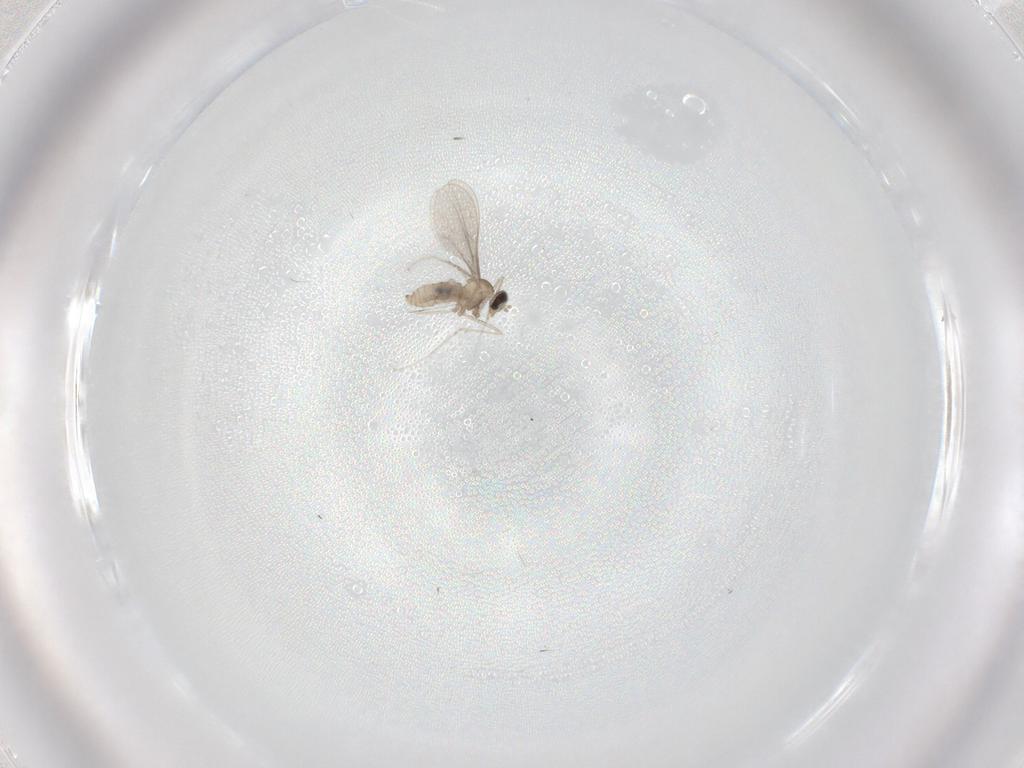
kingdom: Animalia
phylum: Arthropoda
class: Insecta
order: Diptera
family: Cecidomyiidae
